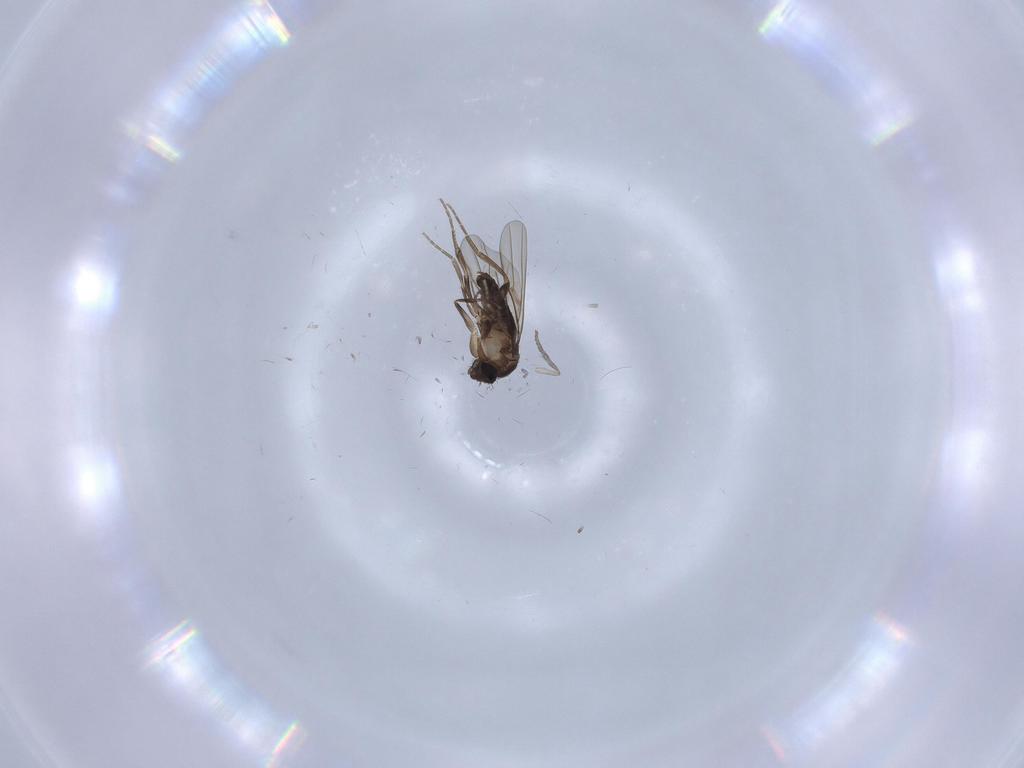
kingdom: Animalia
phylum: Arthropoda
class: Insecta
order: Diptera
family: Phoridae
